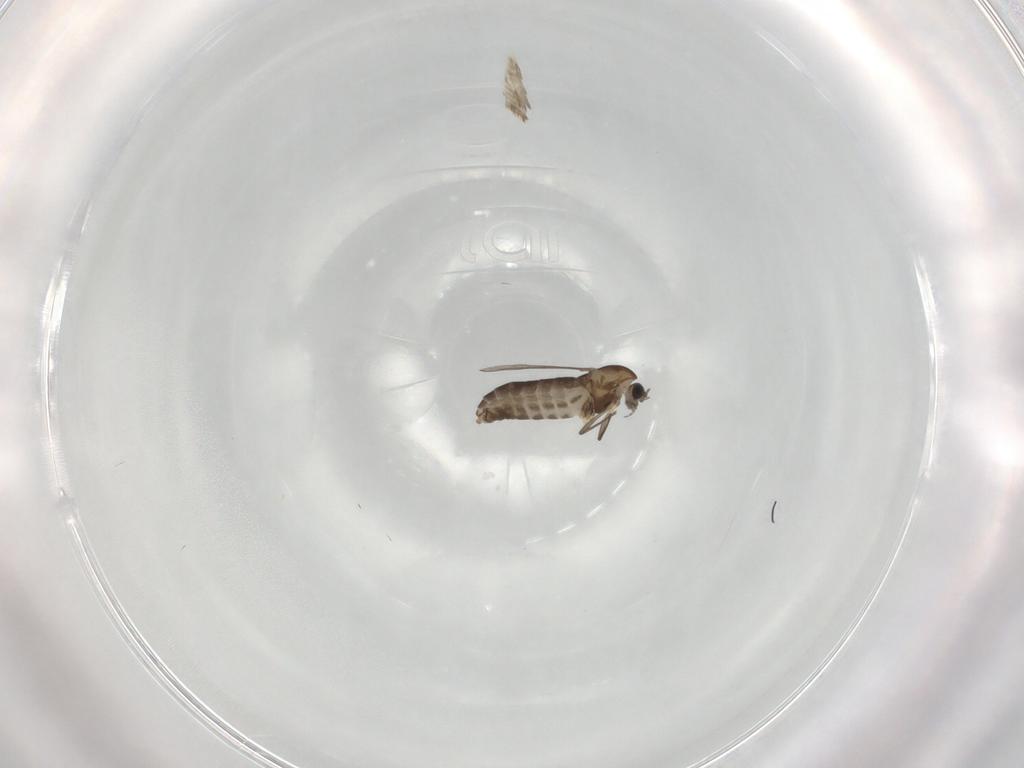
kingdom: Animalia
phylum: Arthropoda
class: Insecta
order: Diptera
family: Chironomidae
